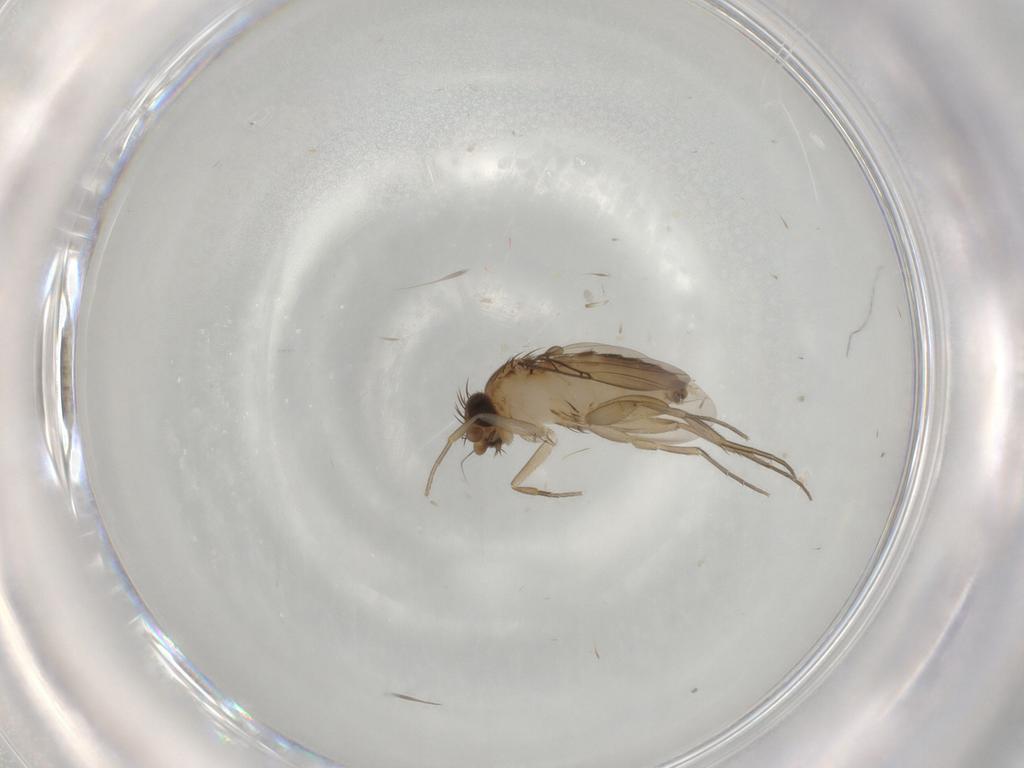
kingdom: Animalia
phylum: Arthropoda
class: Insecta
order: Diptera
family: Phoridae
